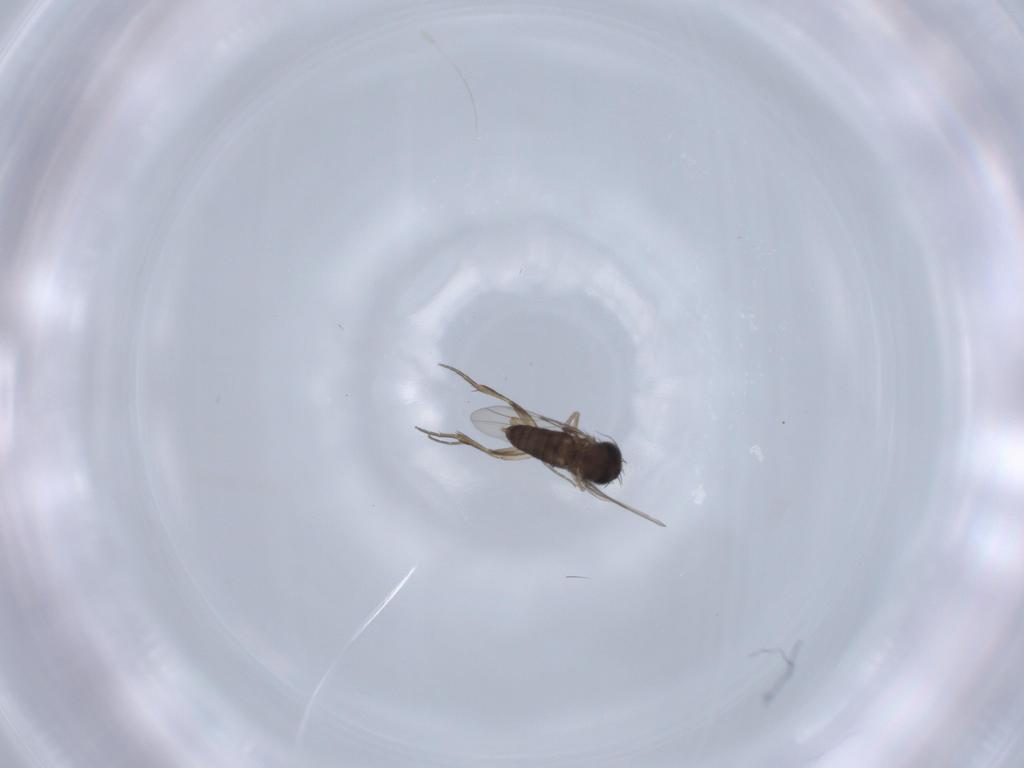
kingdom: Animalia
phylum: Arthropoda
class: Insecta
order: Diptera
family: Phoridae
